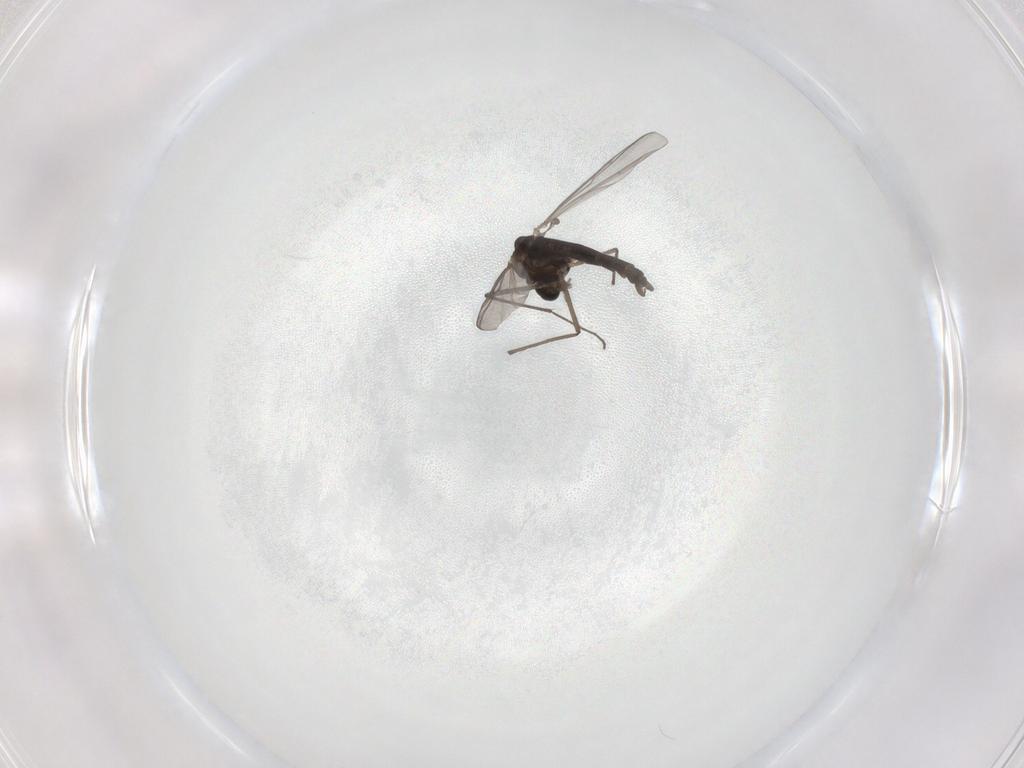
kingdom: Animalia
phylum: Arthropoda
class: Insecta
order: Diptera
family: Chironomidae
